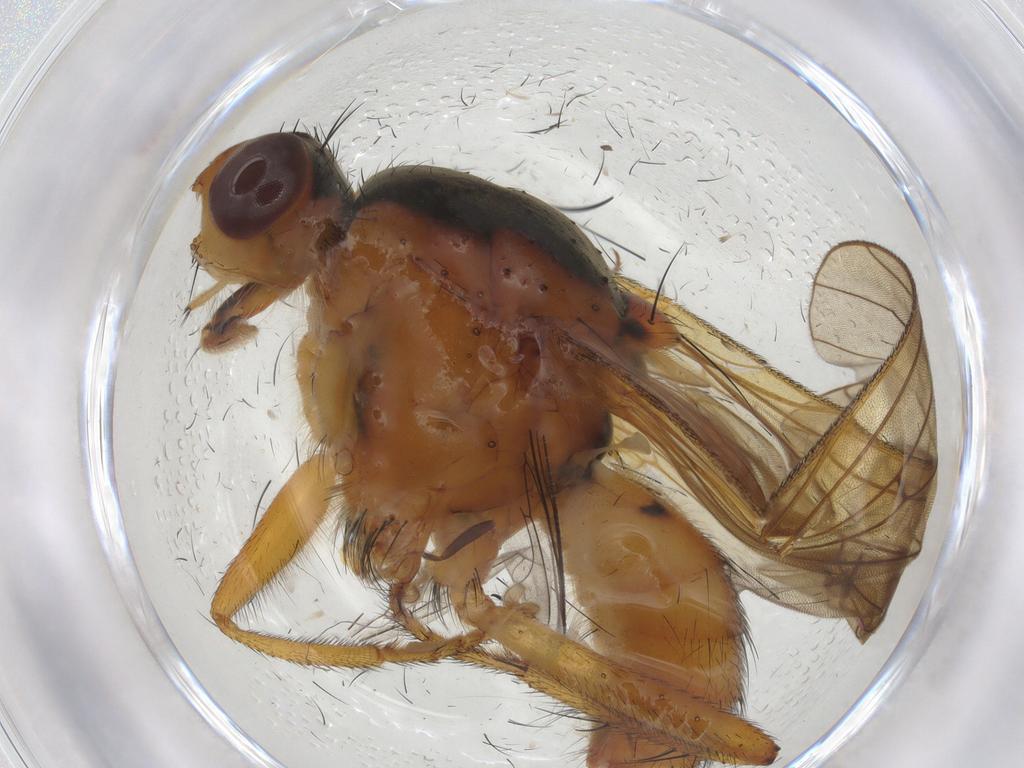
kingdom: Animalia
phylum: Arthropoda
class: Insecta
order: Diptera
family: Scathophagidae
